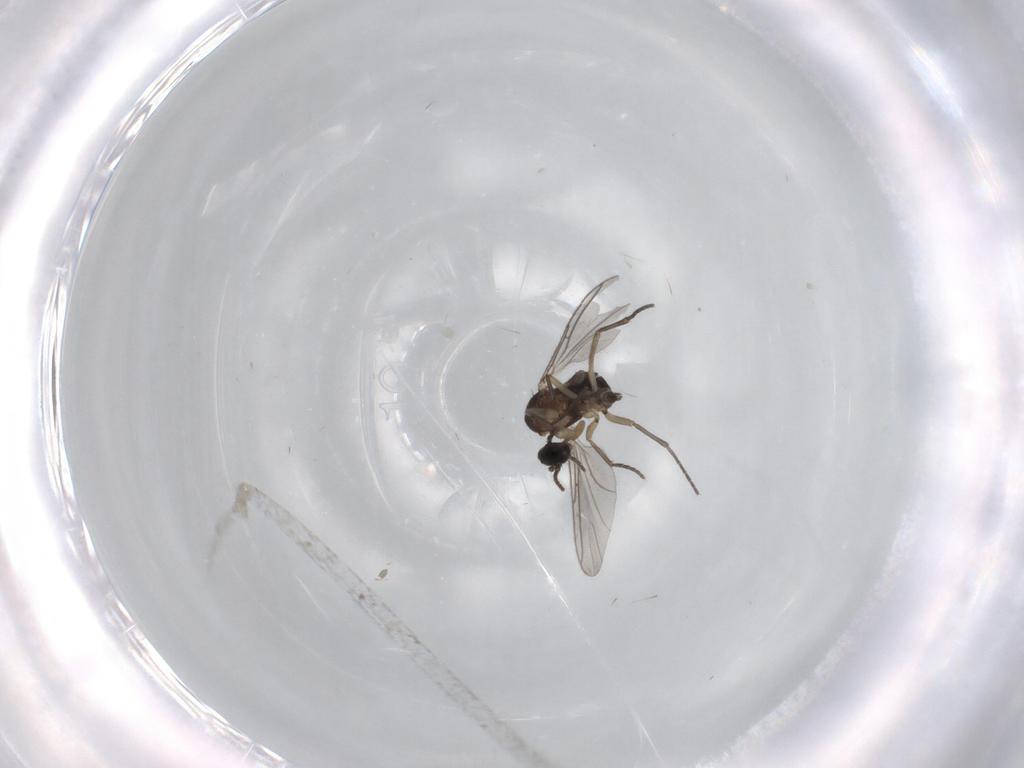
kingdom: Animalia
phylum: Arthropoda
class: Insecta
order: Diptera
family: Sciaridae
